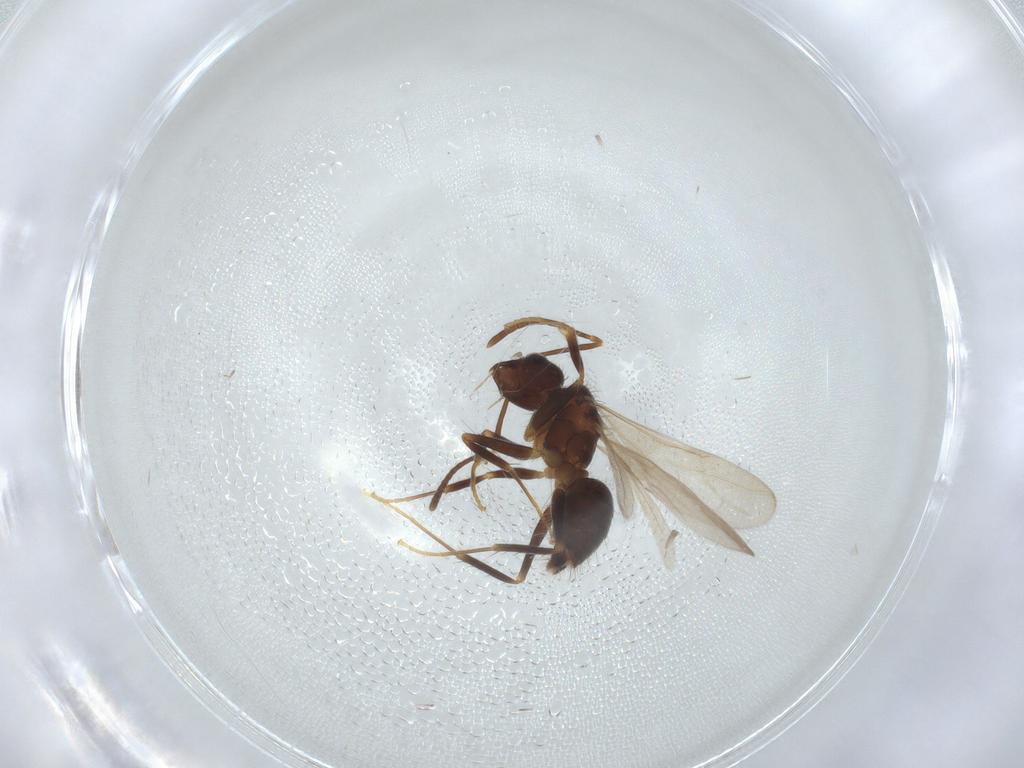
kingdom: Animalia
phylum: Arthropoda
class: Insecta
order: Hymenoptera
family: Formicidae
